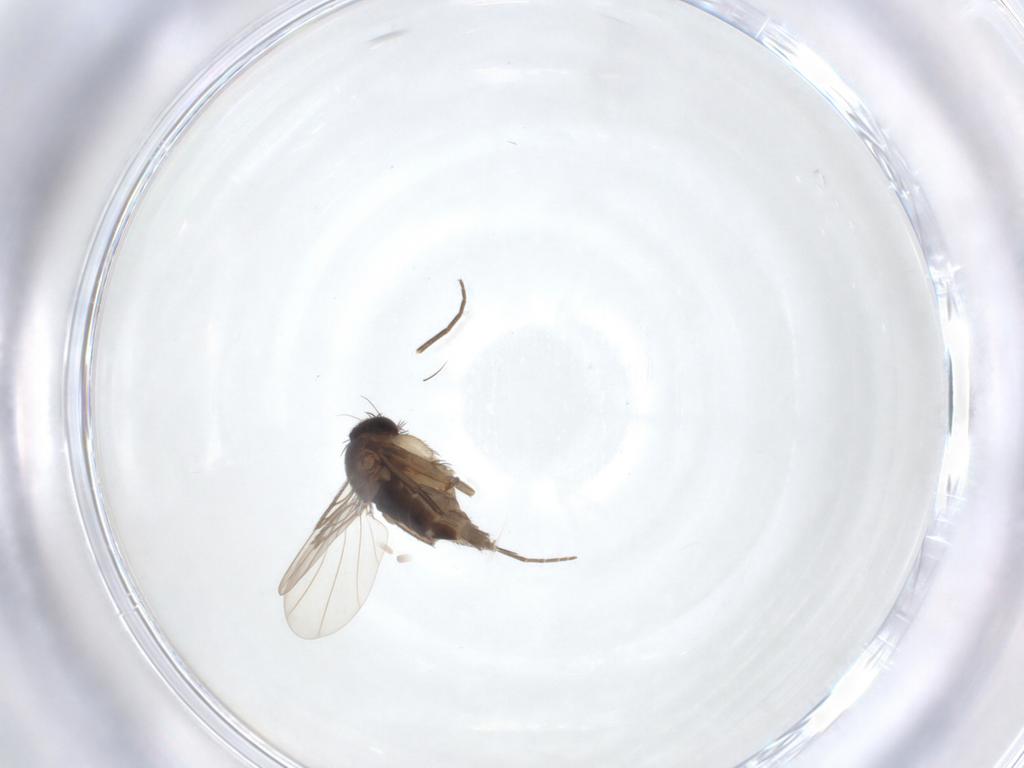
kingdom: Animalia
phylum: Arthropoda
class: Insecta
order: Diptera
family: Phoridae
